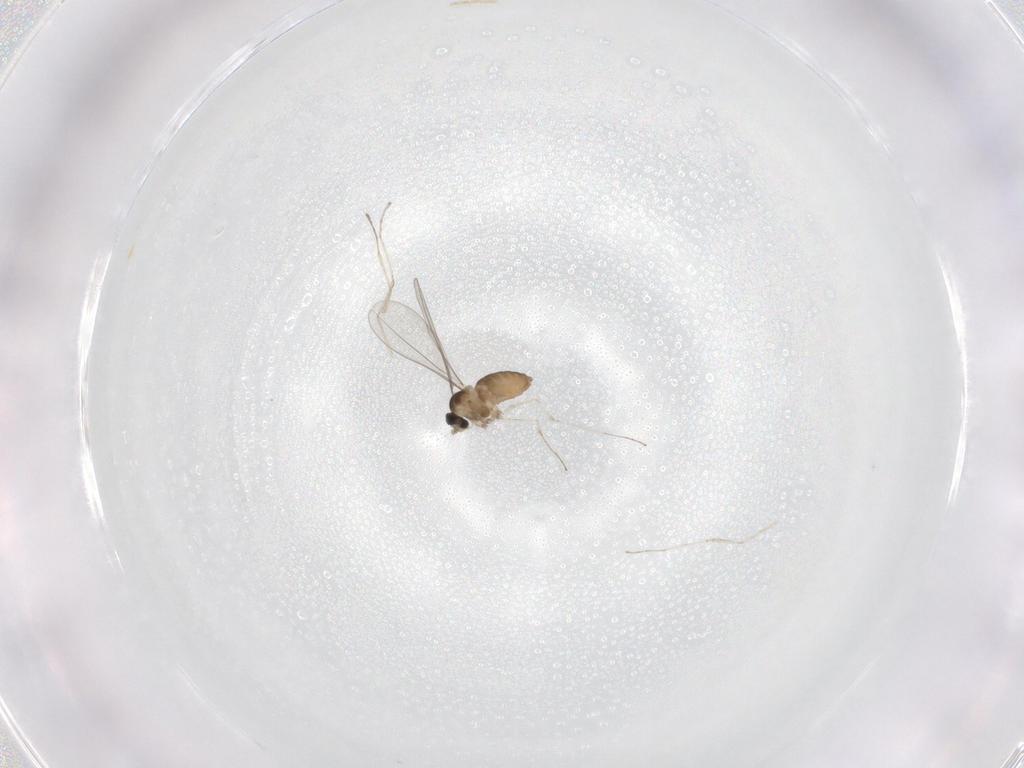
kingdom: Animalia
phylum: Arthropoda
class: Insecta
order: Diptera
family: Cecidomyiidae
